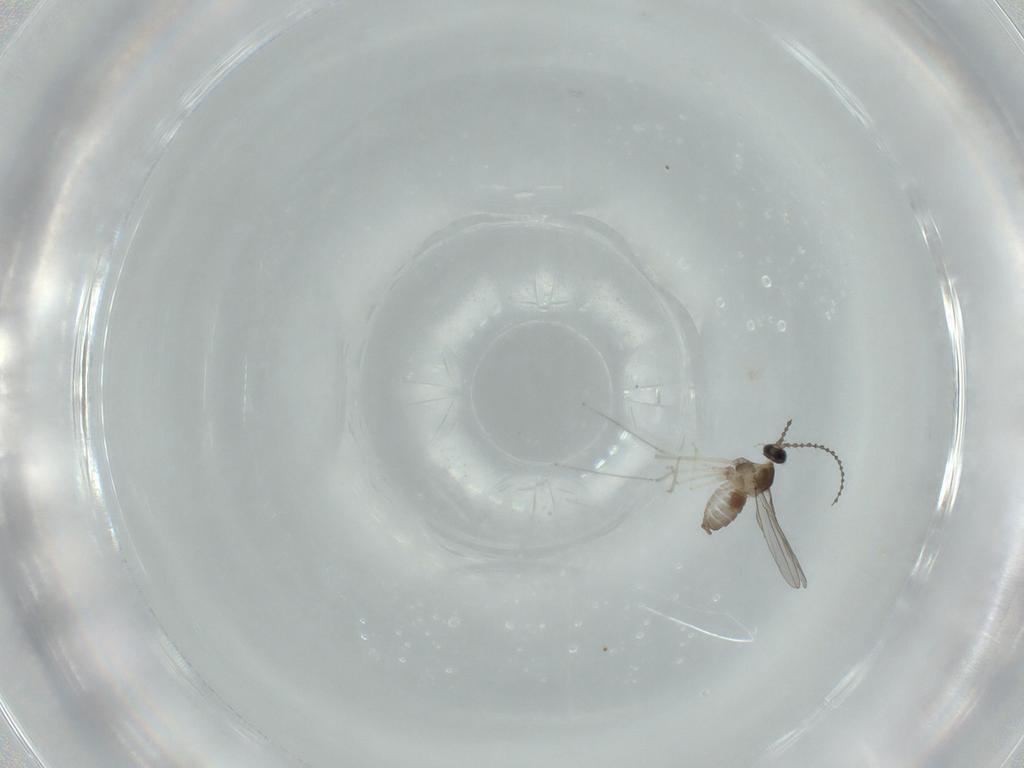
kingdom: Animalia
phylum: Arthropoda
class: Insecta
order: Diptera
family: Cecidomyiidae
